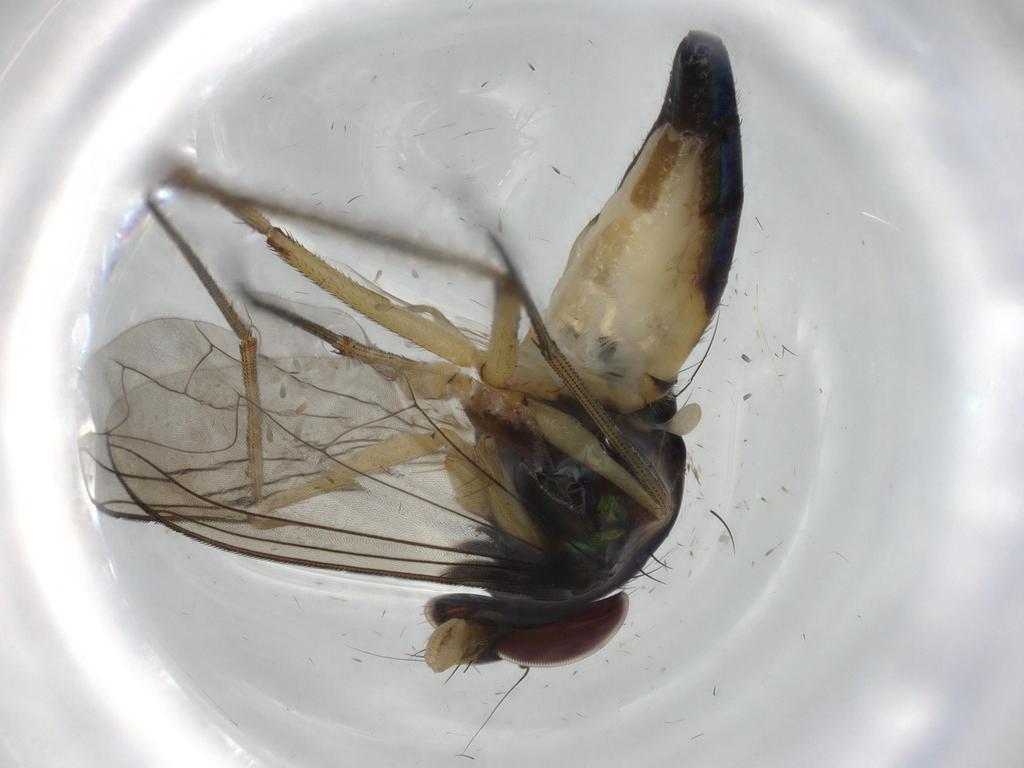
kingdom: Animalia
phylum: Arthropoda
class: Insecta
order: Diptera
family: Dolichopodidae
